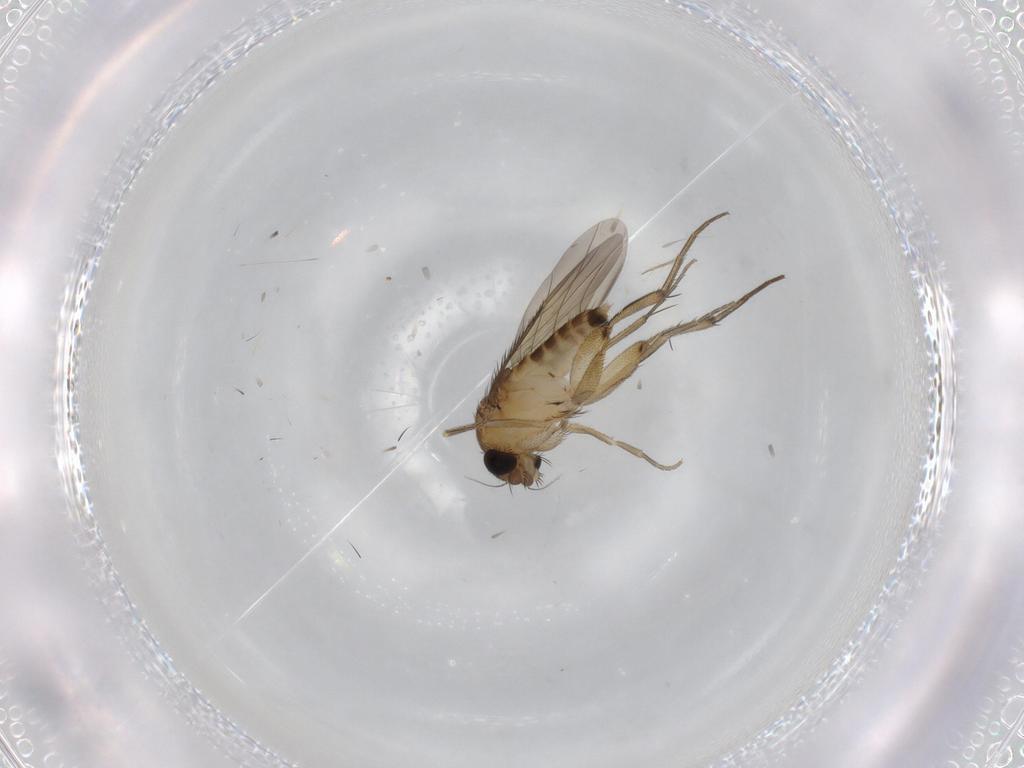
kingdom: Animalia
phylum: Arthropoda
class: Insecta
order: Diptera
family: Phoridae
